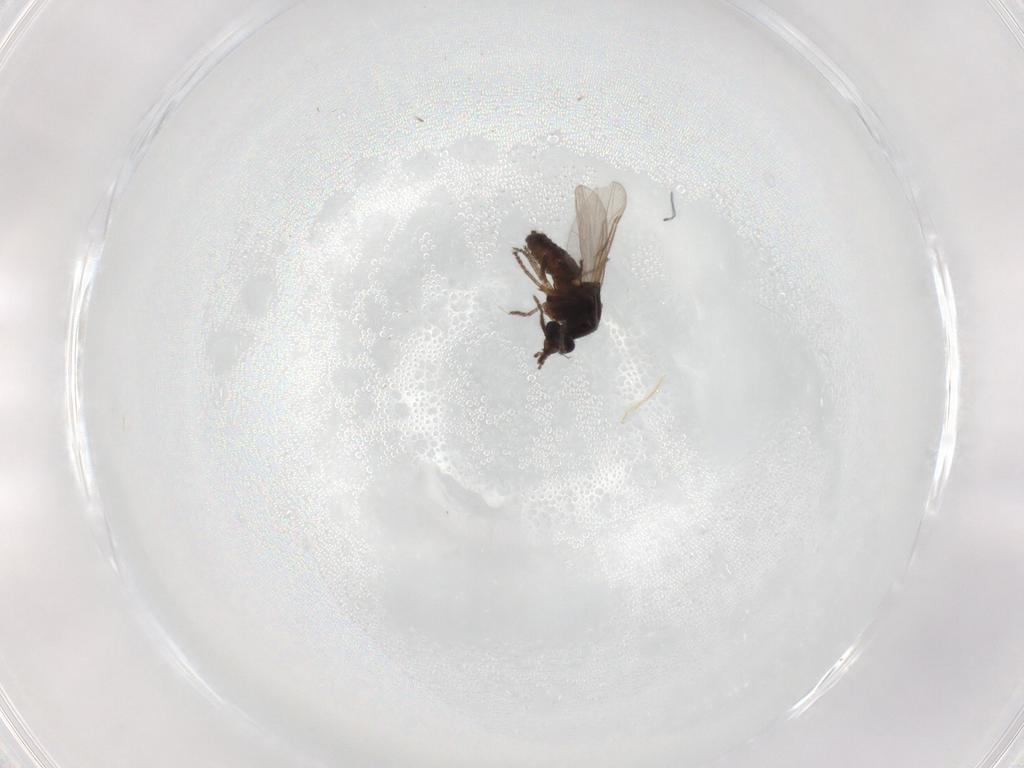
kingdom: Animalia
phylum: Arthropoda
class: Insecta
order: Diptera
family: Ceratopogonidae
